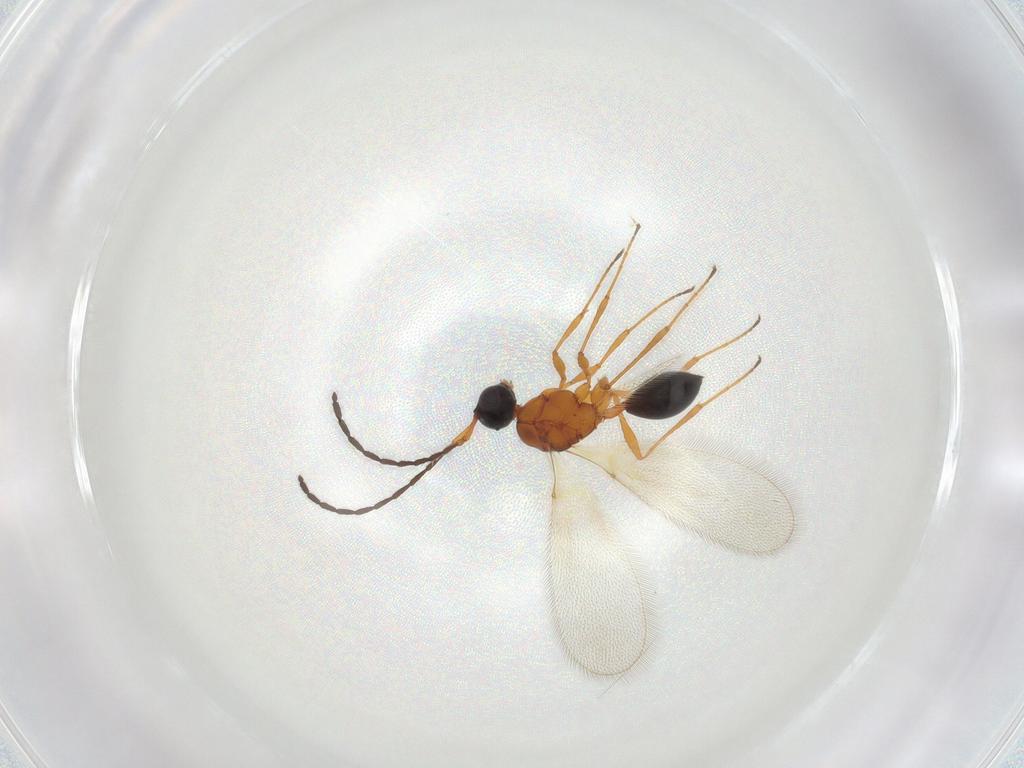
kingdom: Animalia
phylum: Arthropoda
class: Insecta
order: Hymenoptera
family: Diapriidae
